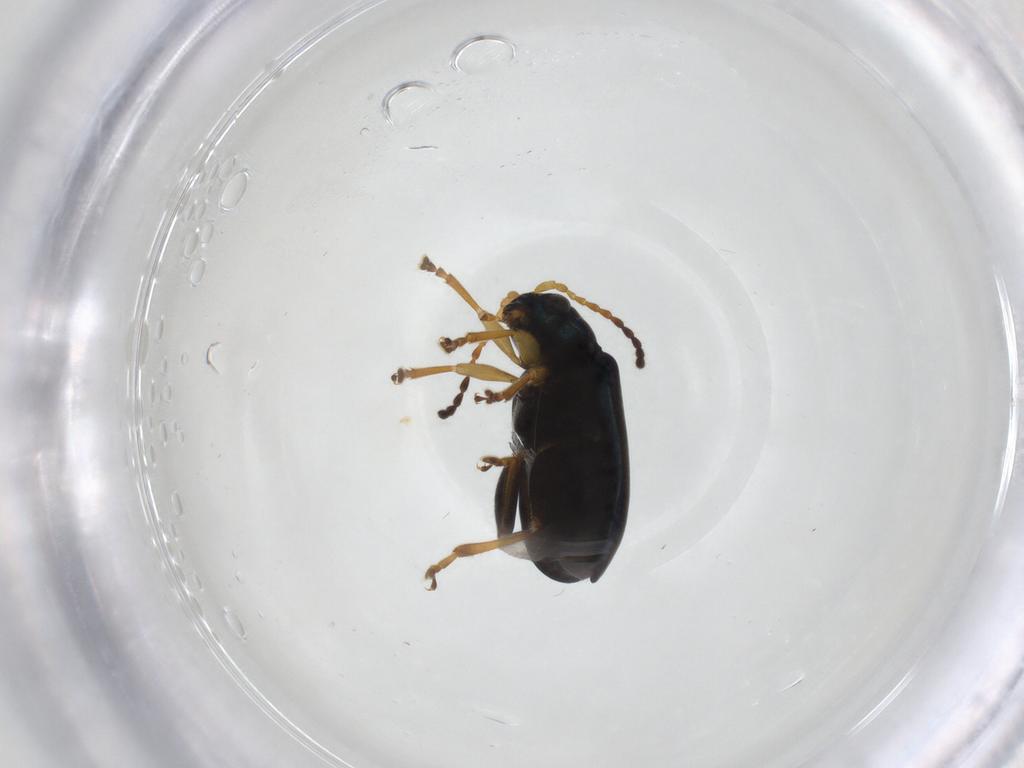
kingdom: Animalia
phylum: Arthropoda
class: Insecta
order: Coleoptera
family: Chrysomelidae
